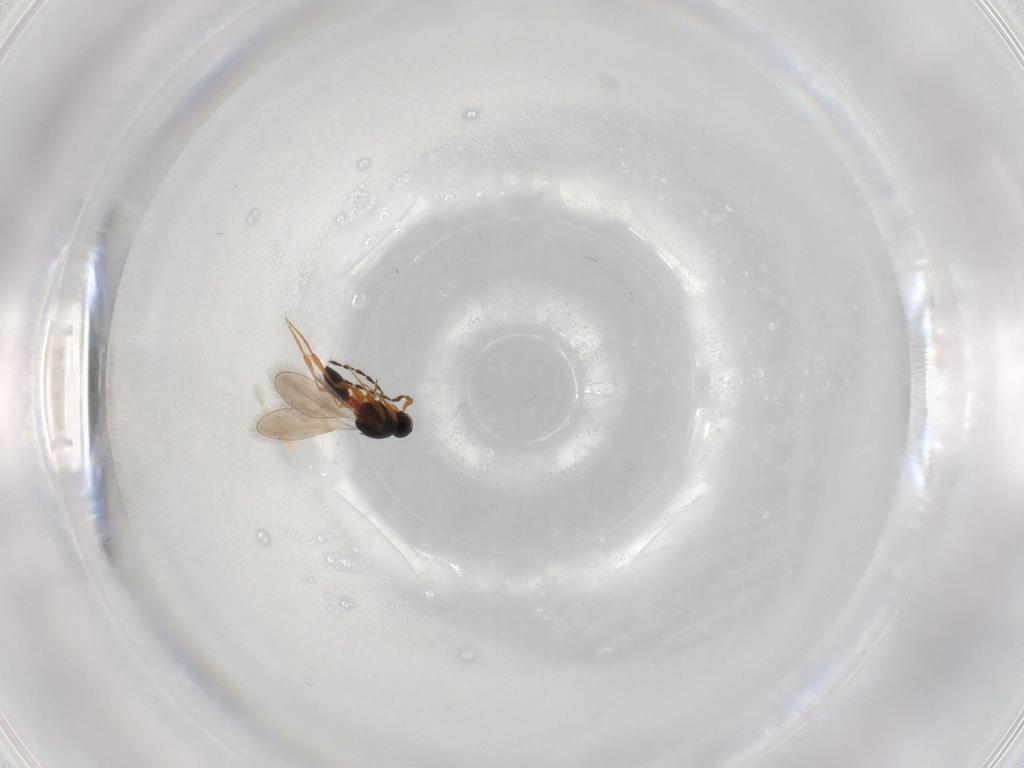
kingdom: Animalia
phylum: Arthropoda
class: Insecta
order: Hymenoptera
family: Platygastridae
